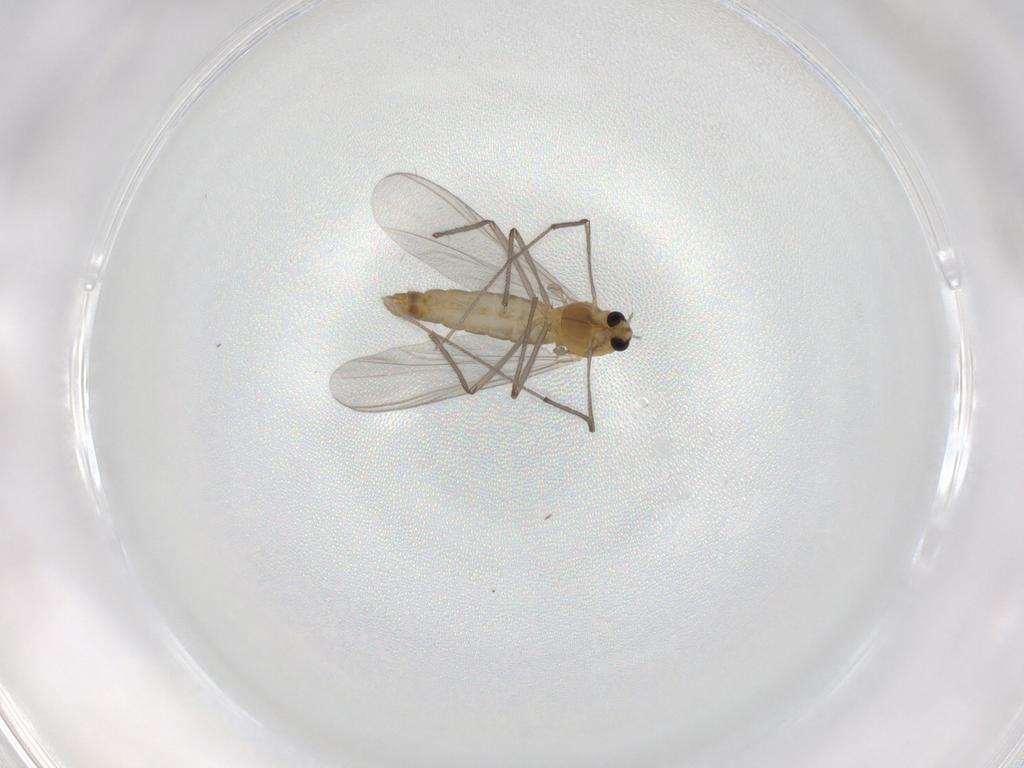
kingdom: Animalia
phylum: Arthropoda
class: Insecta
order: Diptera
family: Chironomidae
